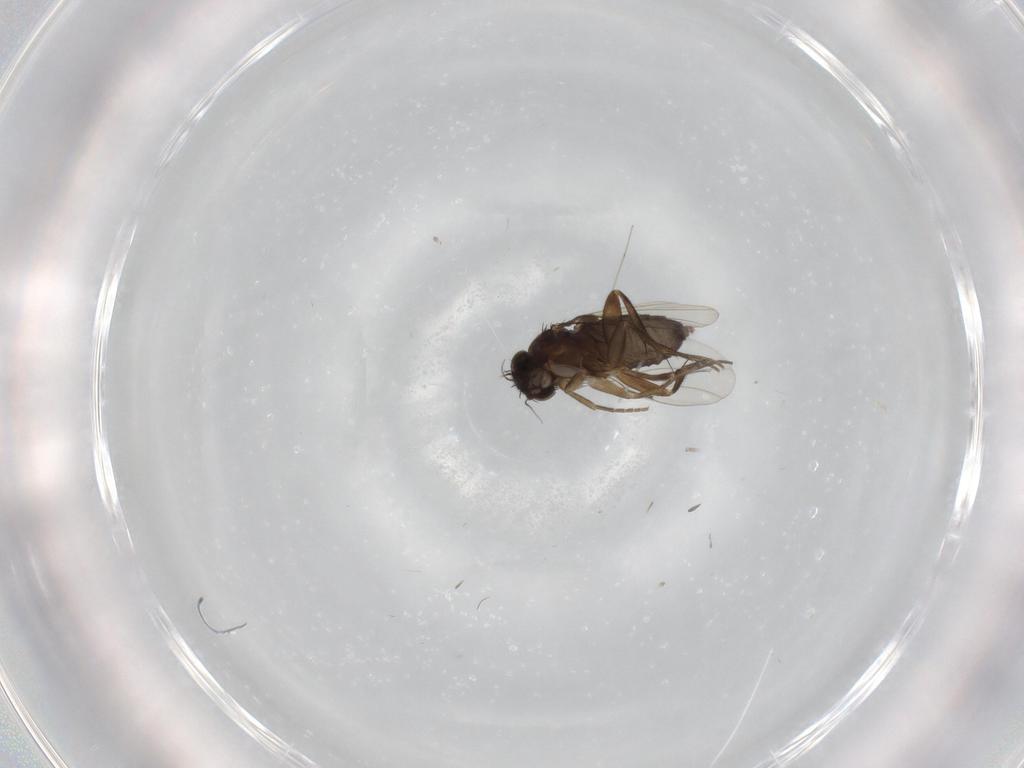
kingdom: Animalia
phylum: Arthropoda
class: Insecta
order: Diptera
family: Phoridae
